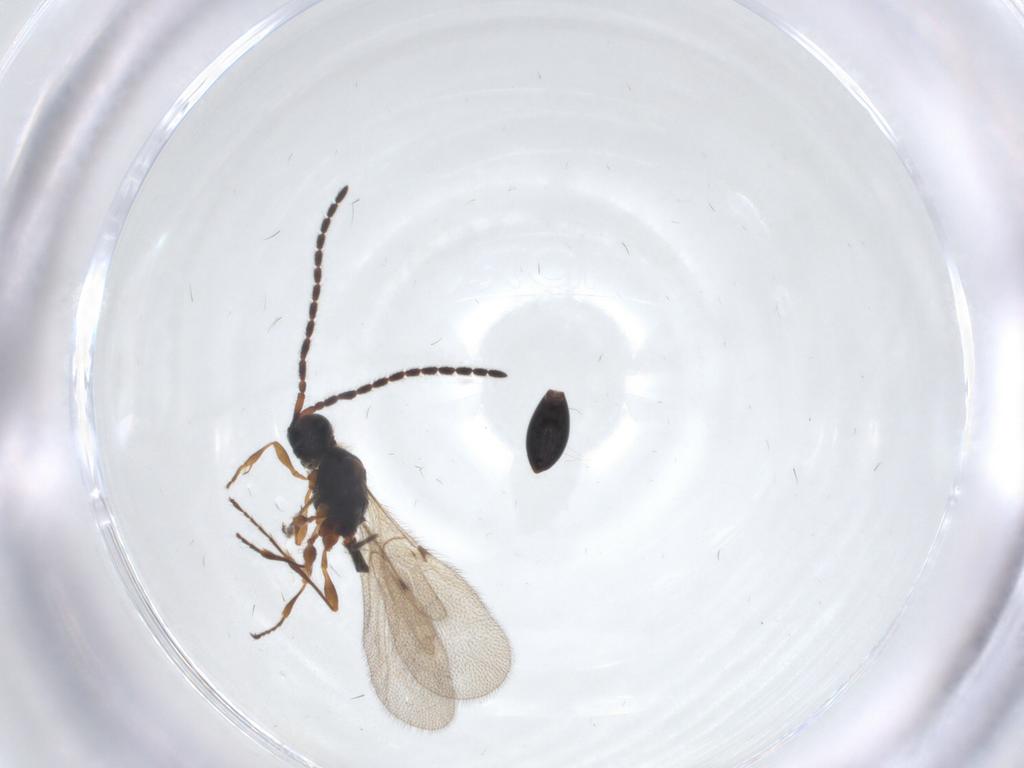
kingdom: Animalia
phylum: Arthropoda
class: Insecta
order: Hymenoptera
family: Diapriidae
